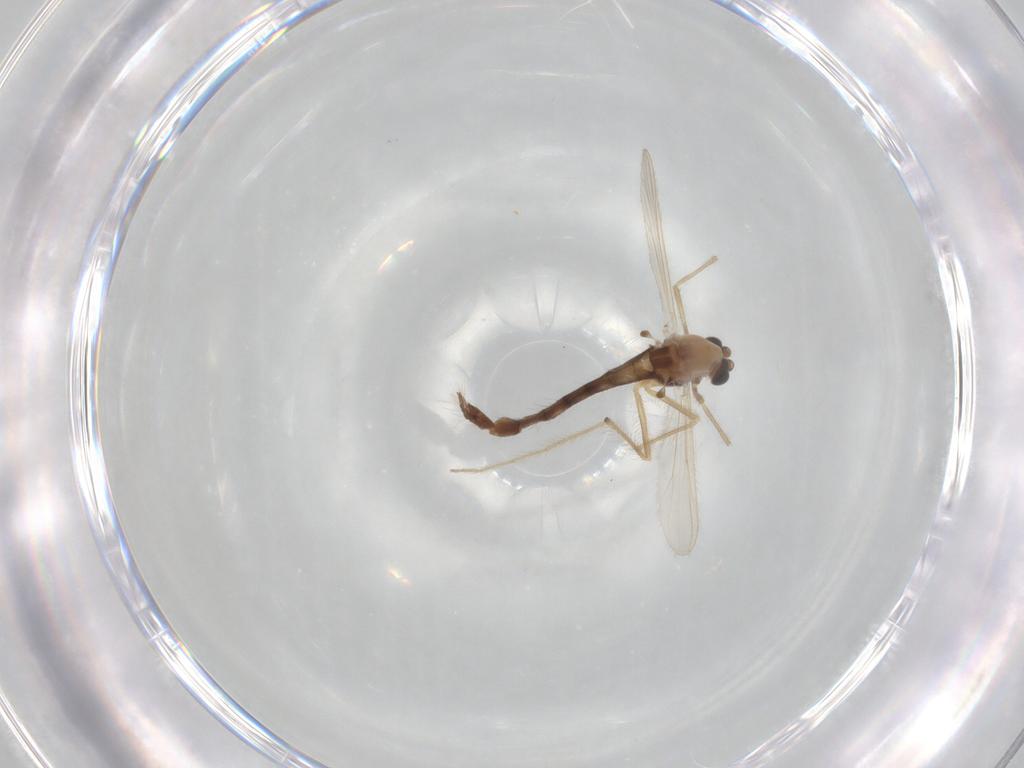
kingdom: Animalia
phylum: Arthropoda
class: Insecta
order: Diptera
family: Chironomidae
